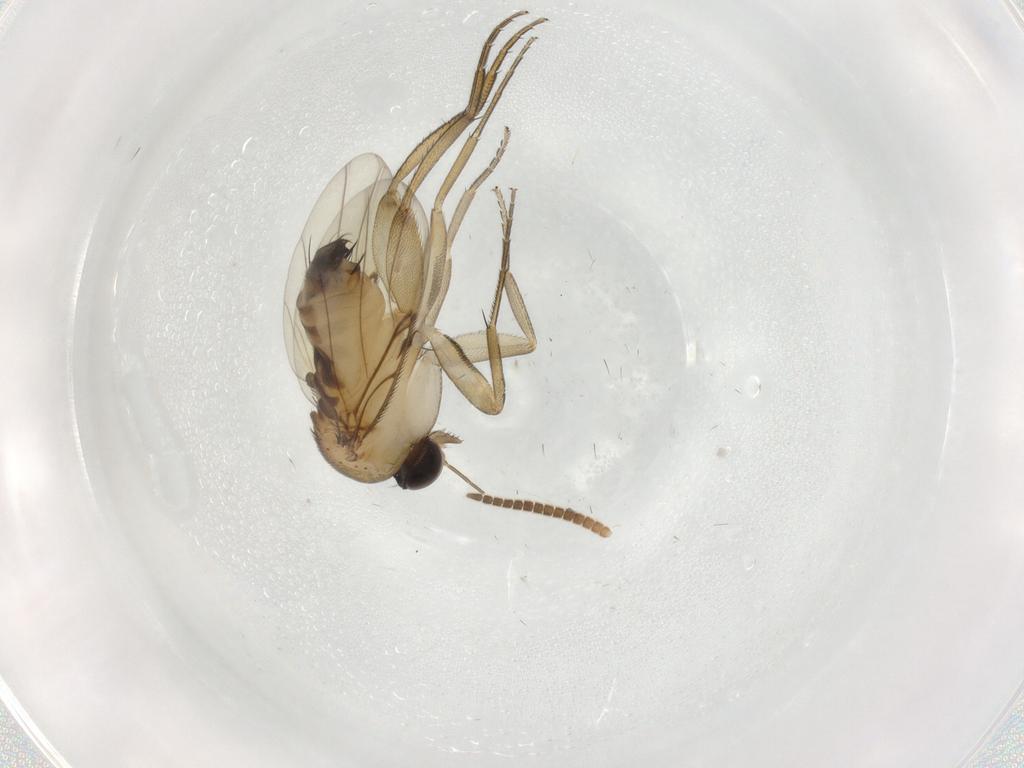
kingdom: Animalia
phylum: Arthropoda
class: Insecta
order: Diptera
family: Mycetophilidae
